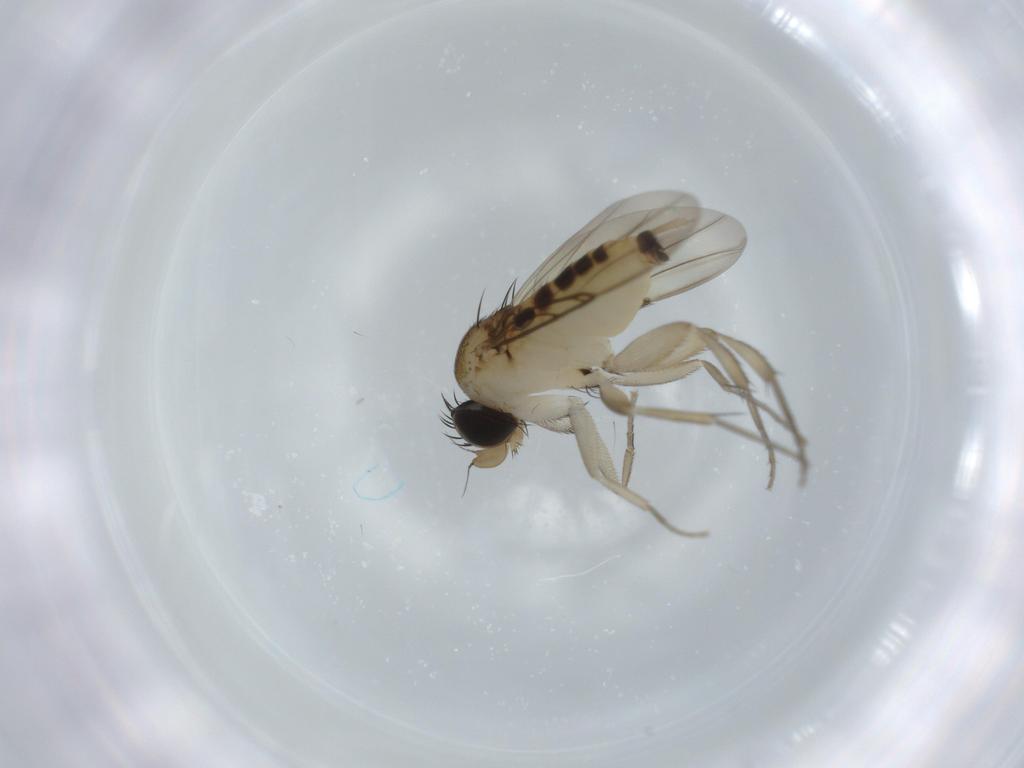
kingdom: Animalia
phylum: Arthropoda
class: Insecta
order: Diptera
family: Phoridae
